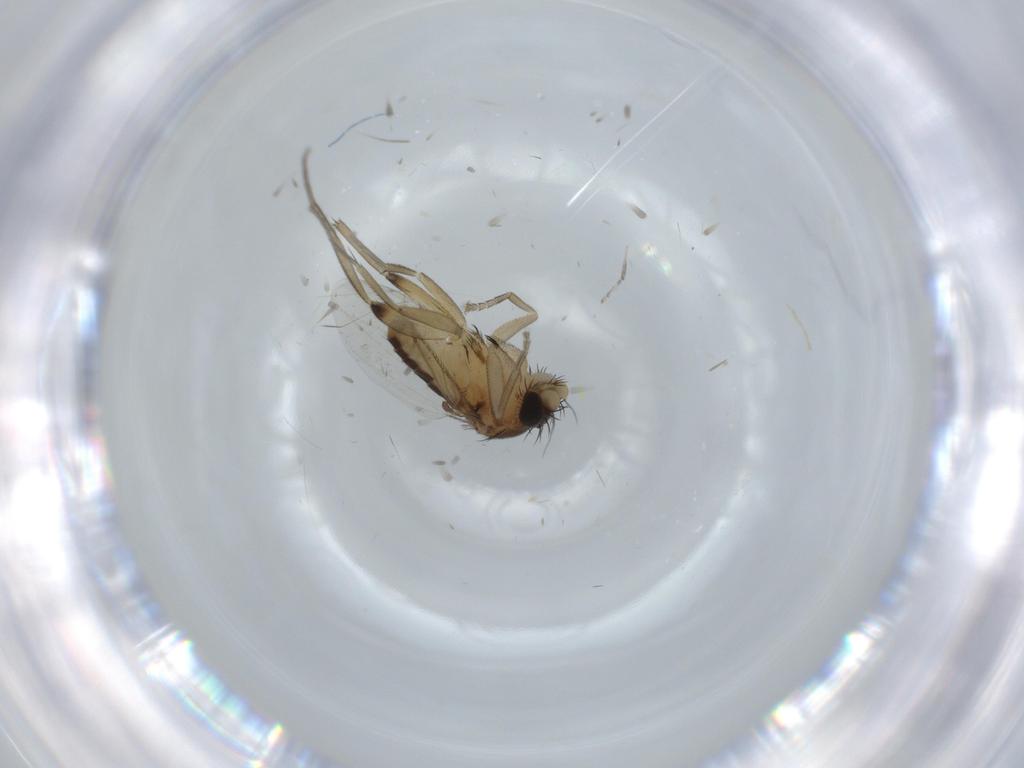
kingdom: Animalia
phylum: Arthropoda
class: Insecta
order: Diptera
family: Phoridae
